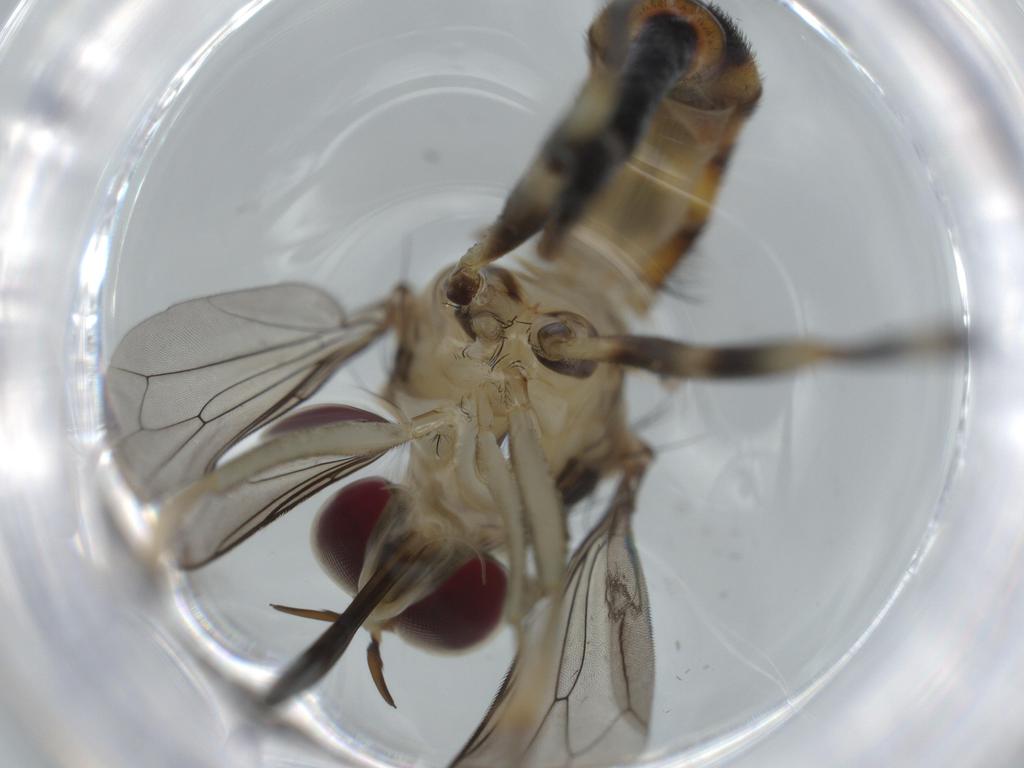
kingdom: Animalia
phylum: Arthropoda
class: Insecta
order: Diptera
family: Conopidae
